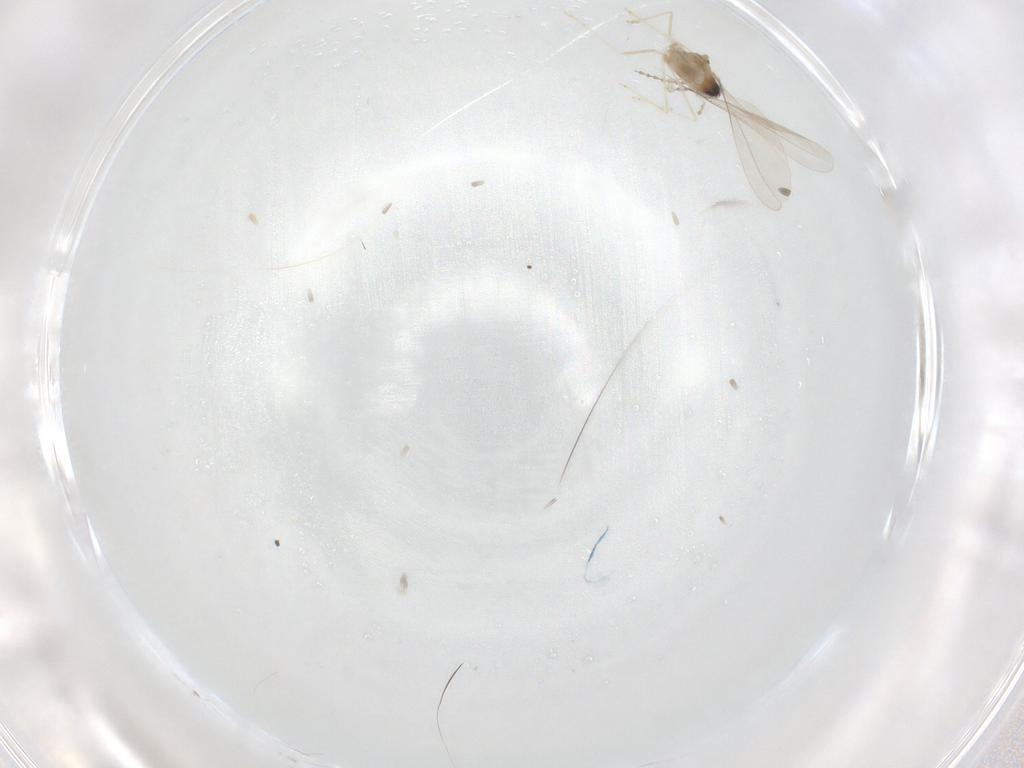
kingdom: Animalia
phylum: Arthropoda
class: Insecta
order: Diptera
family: Cecidomyiidae
